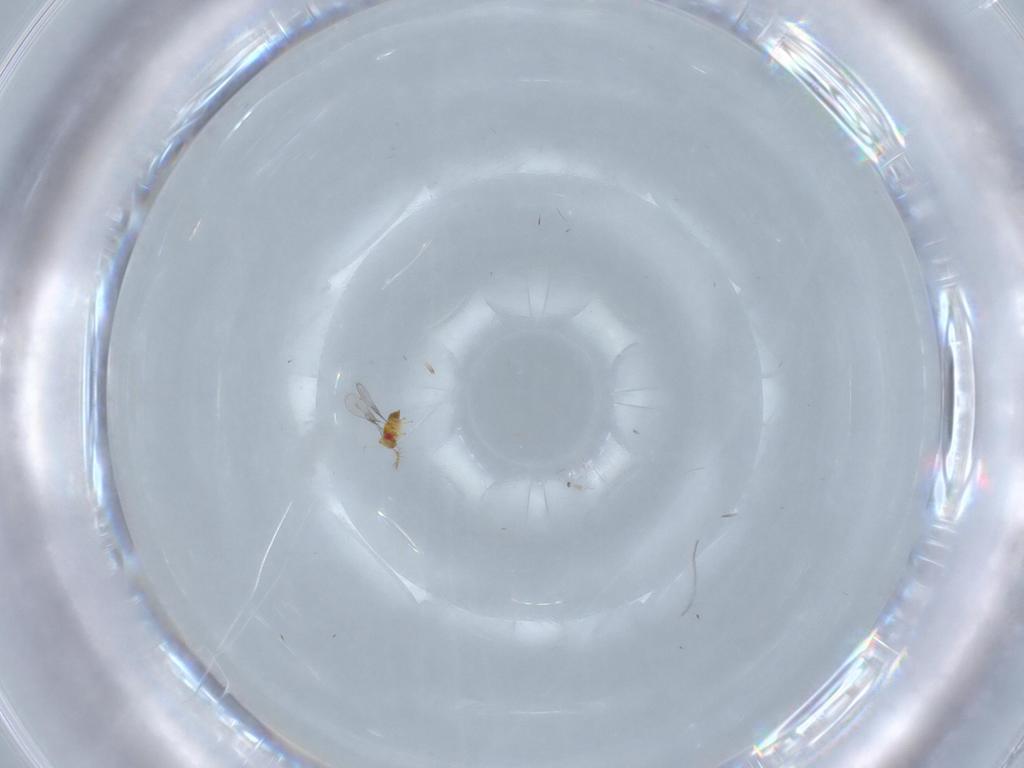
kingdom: Animalia
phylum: Arthropoda
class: Insecta
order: Hymenoptera
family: Trichogrammatidae
